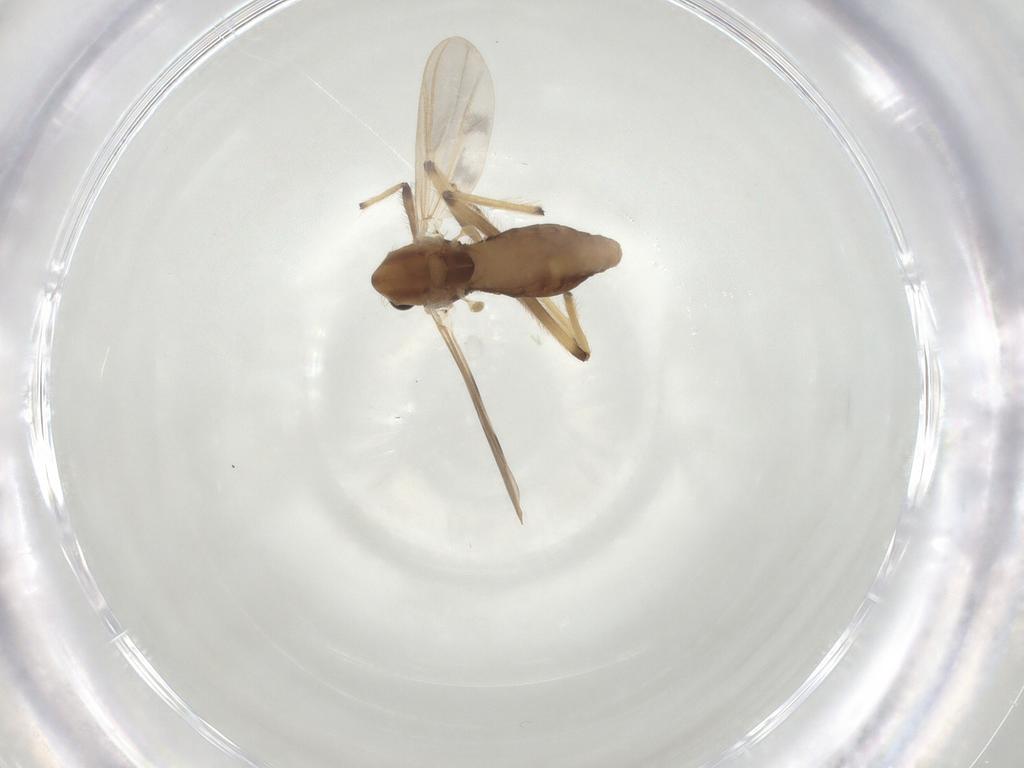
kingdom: Animalia
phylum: Arthropoda
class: Insecta
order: Diptera
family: Chironomidae
